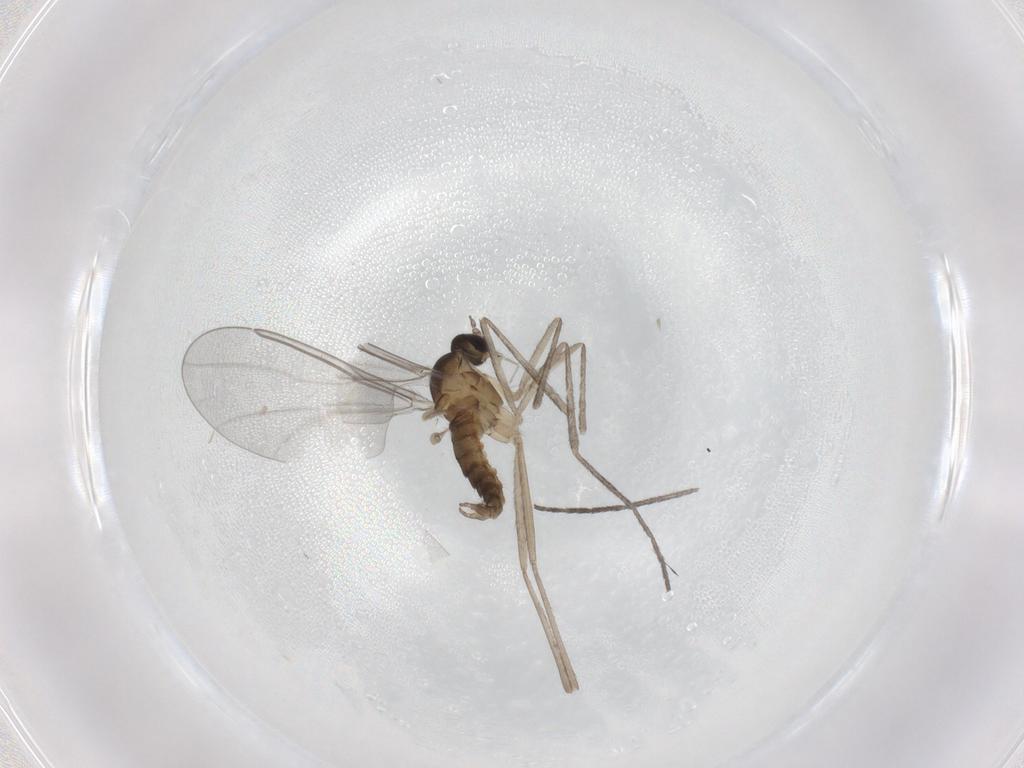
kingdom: Animalia
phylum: Arthropoda
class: Insecta
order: Diptera
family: Cecidomyiidae
